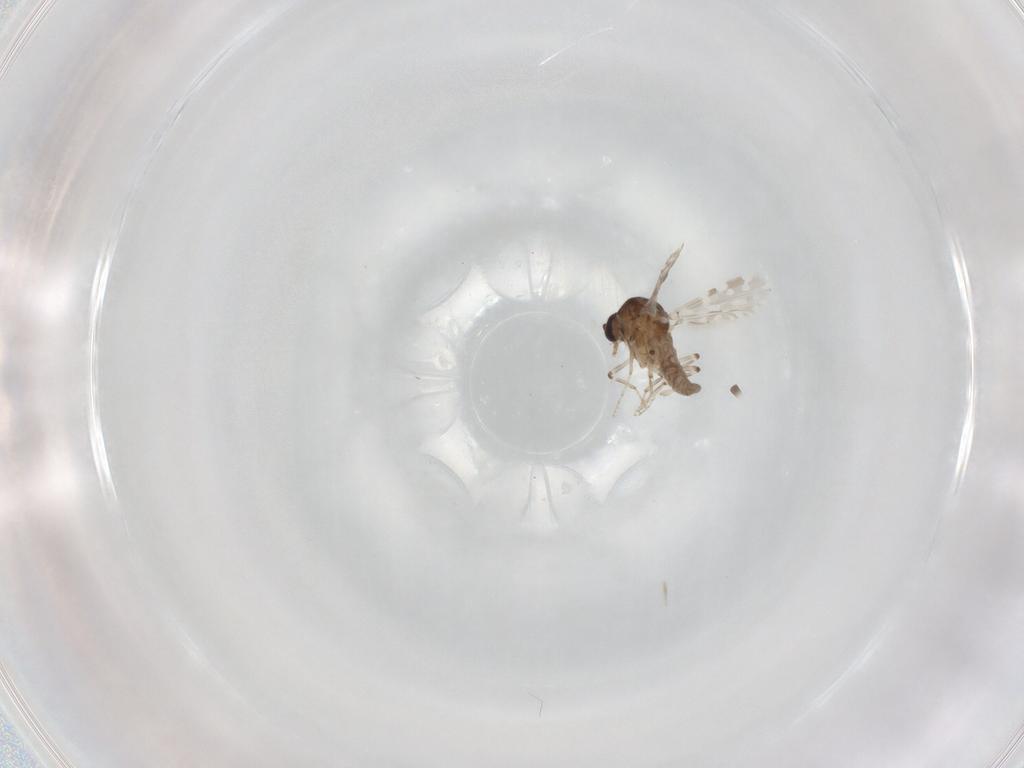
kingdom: Animalia
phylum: Arthropoda
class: Insecta
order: Diptera
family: Ceratopogonidae
